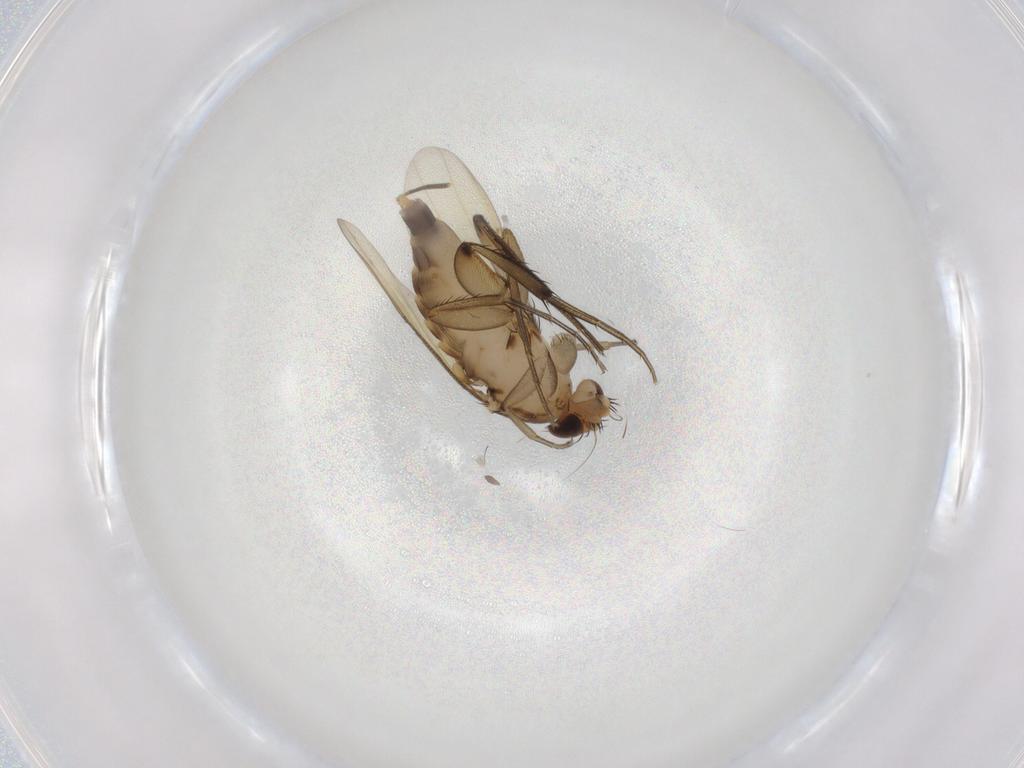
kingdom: Animalia
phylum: Arthropoda
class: Insecta
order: Diptera
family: Phoridae
